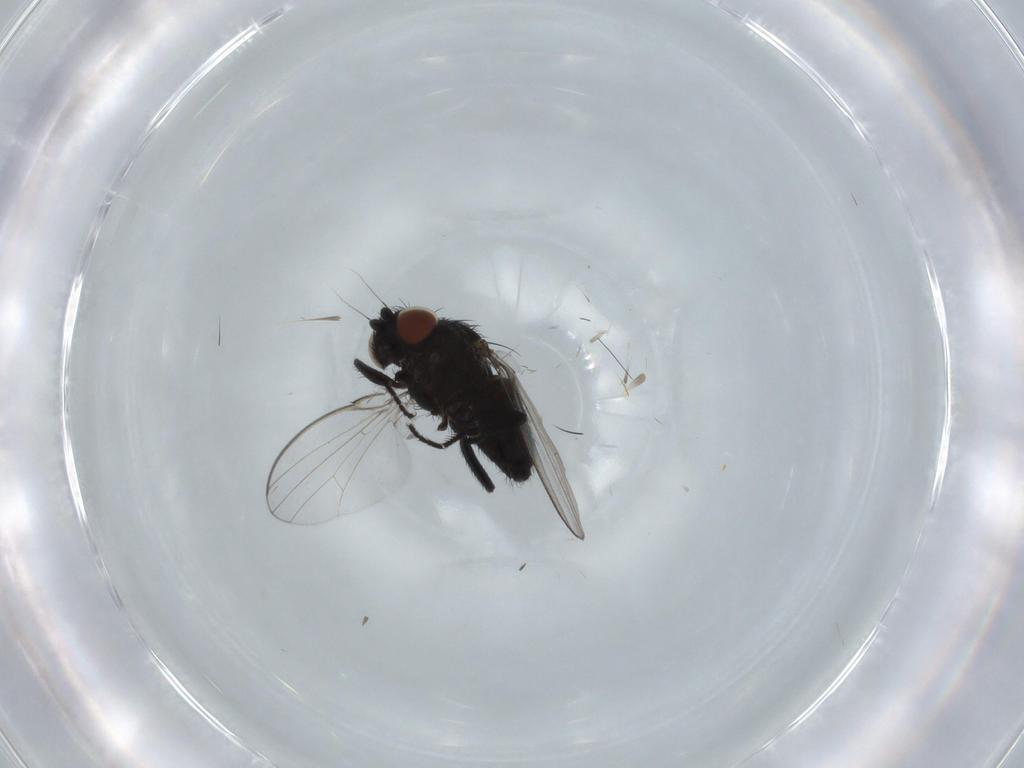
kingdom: Animalia
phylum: Arthropoda
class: Insecta
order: Diptera
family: Milichiidae
